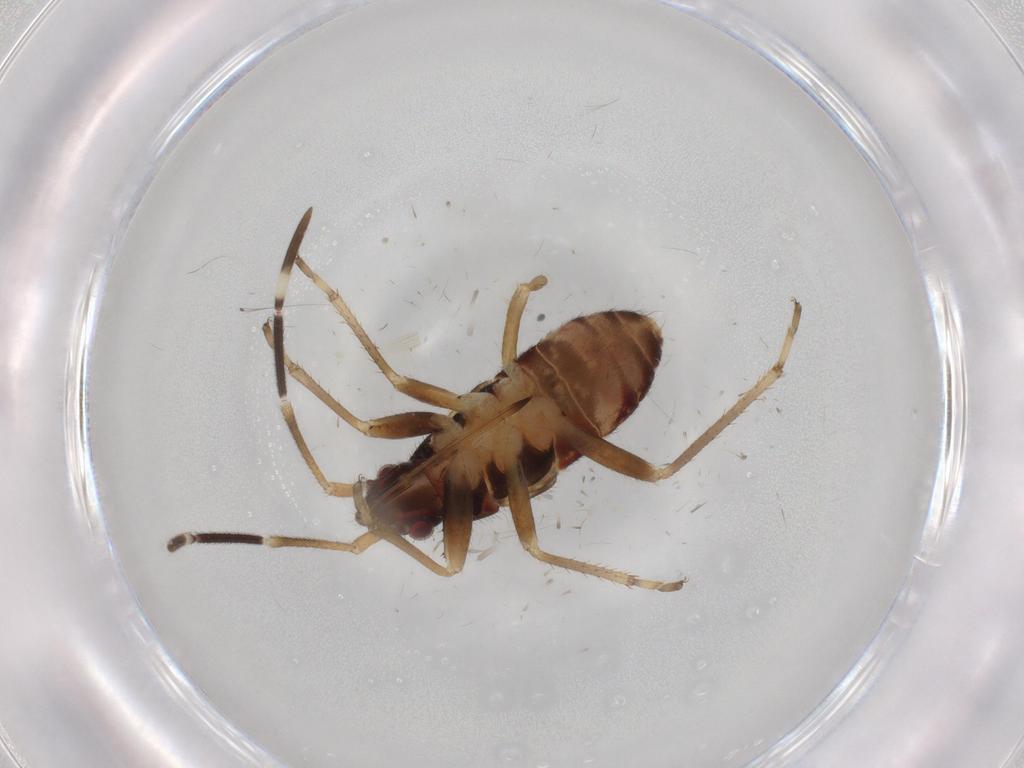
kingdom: Animalia
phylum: Arthropoda
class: Insecta
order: Hemiptera
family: Rhyparochromidae
